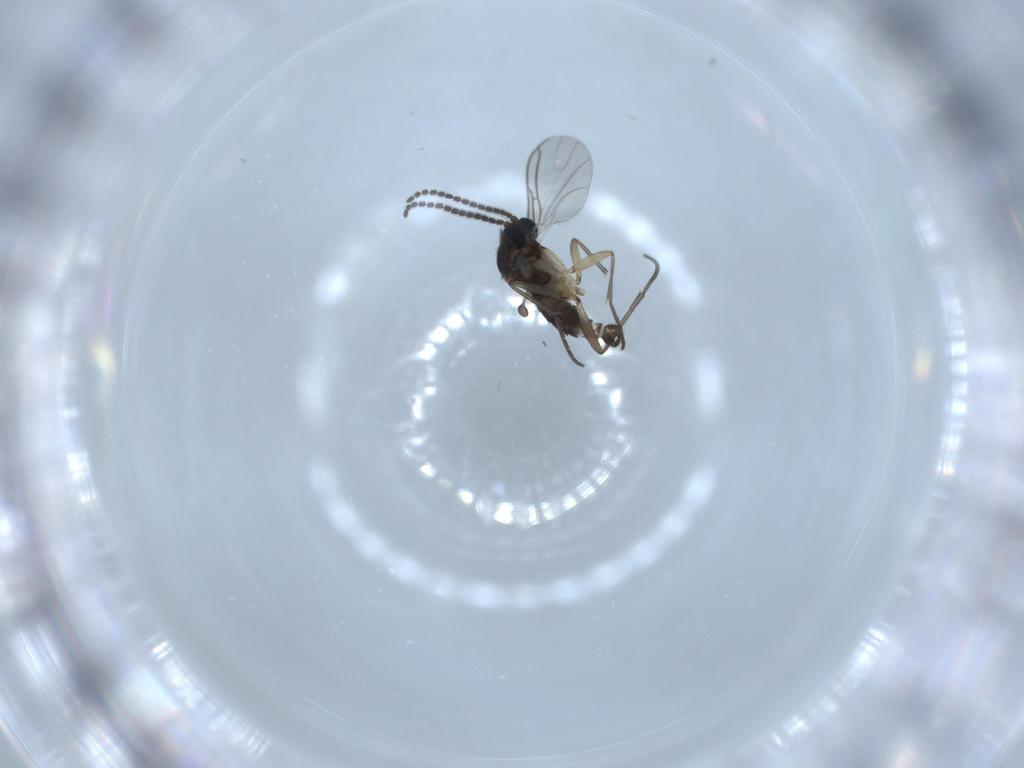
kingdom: Animalia
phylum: Arthropoda
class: Insecta
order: Diptera
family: Sciaridae
